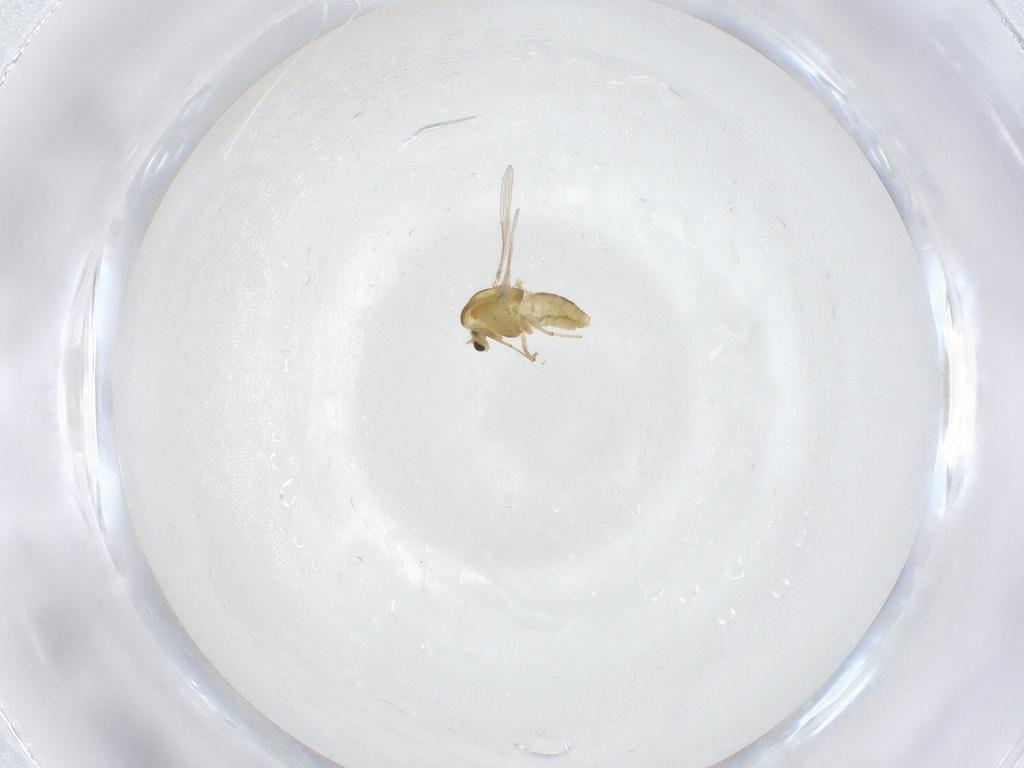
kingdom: Animalia
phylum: Arthropoda
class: Insecta
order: Diptera
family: Chironomidae
